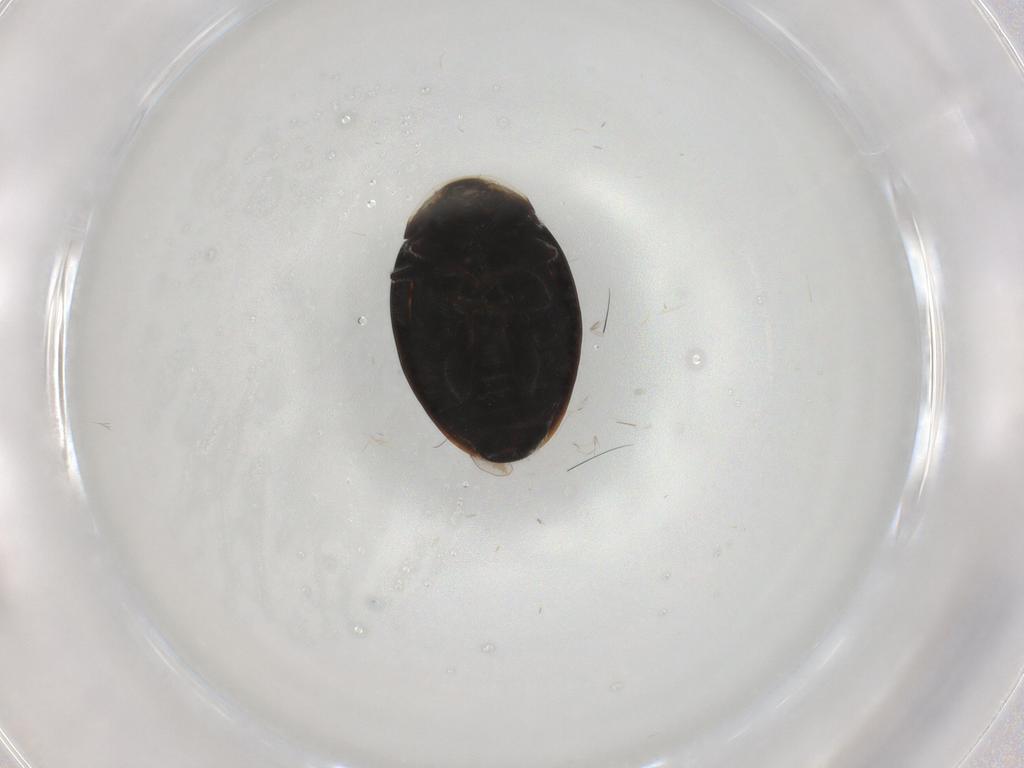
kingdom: Animalia
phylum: Arthropoda
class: Insecta
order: Coleoptera
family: Coccinellidae
